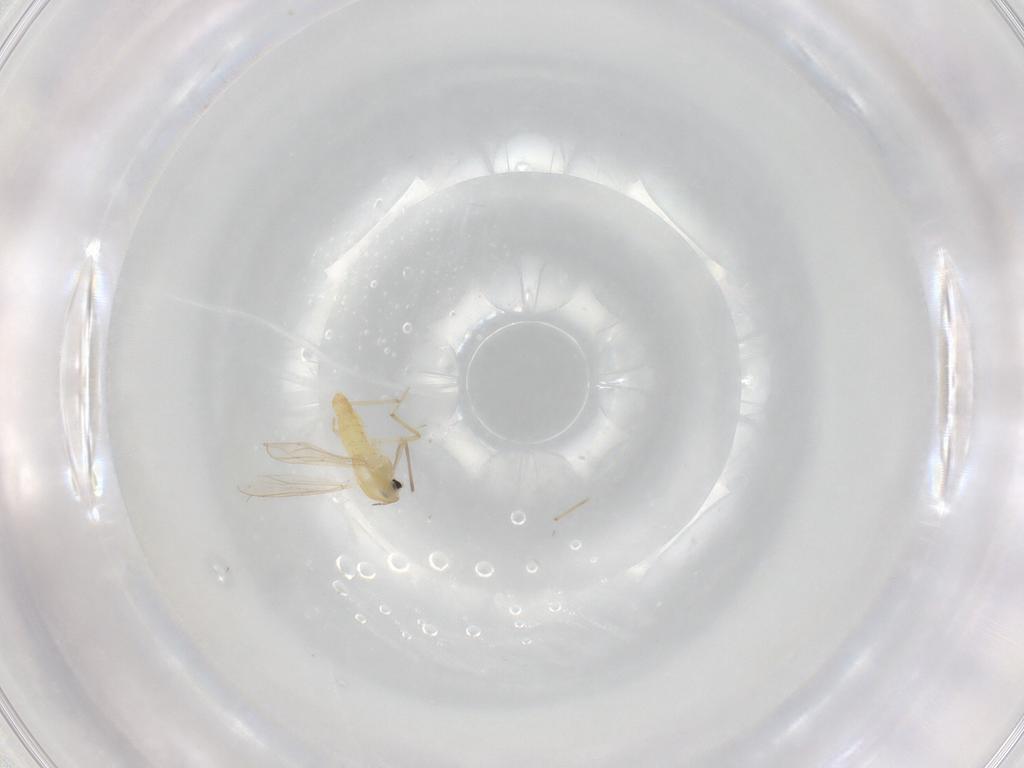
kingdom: Animalia
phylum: Arthropoda
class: Insecta
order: Diptera
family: Chironomidae
